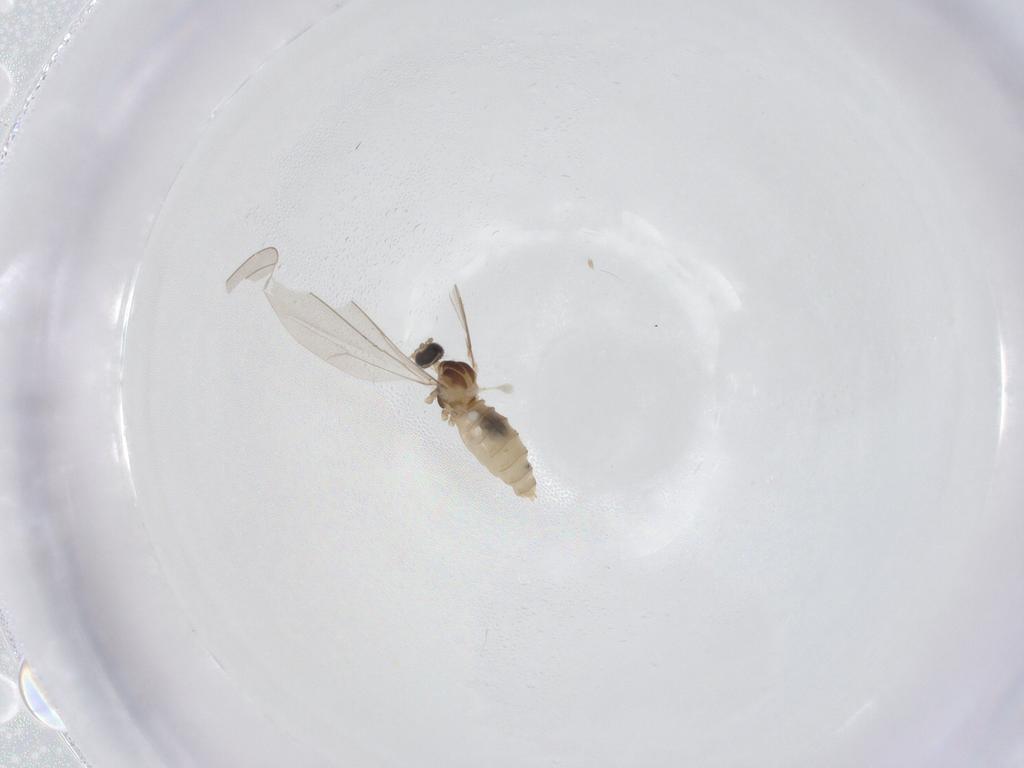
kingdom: Animalia
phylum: Arthropoda
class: Insecta
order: Diptera
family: Cecidomyiidae
